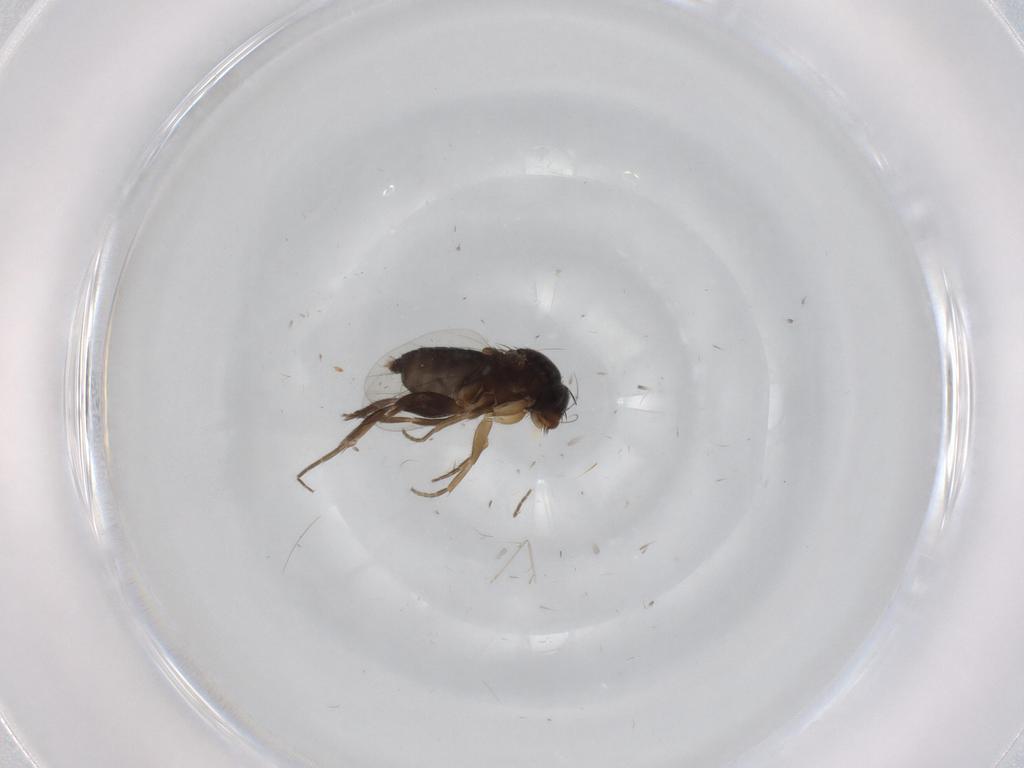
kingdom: Animalia
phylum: Arthropoda
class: Insecta
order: Diptera
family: Phoridae
